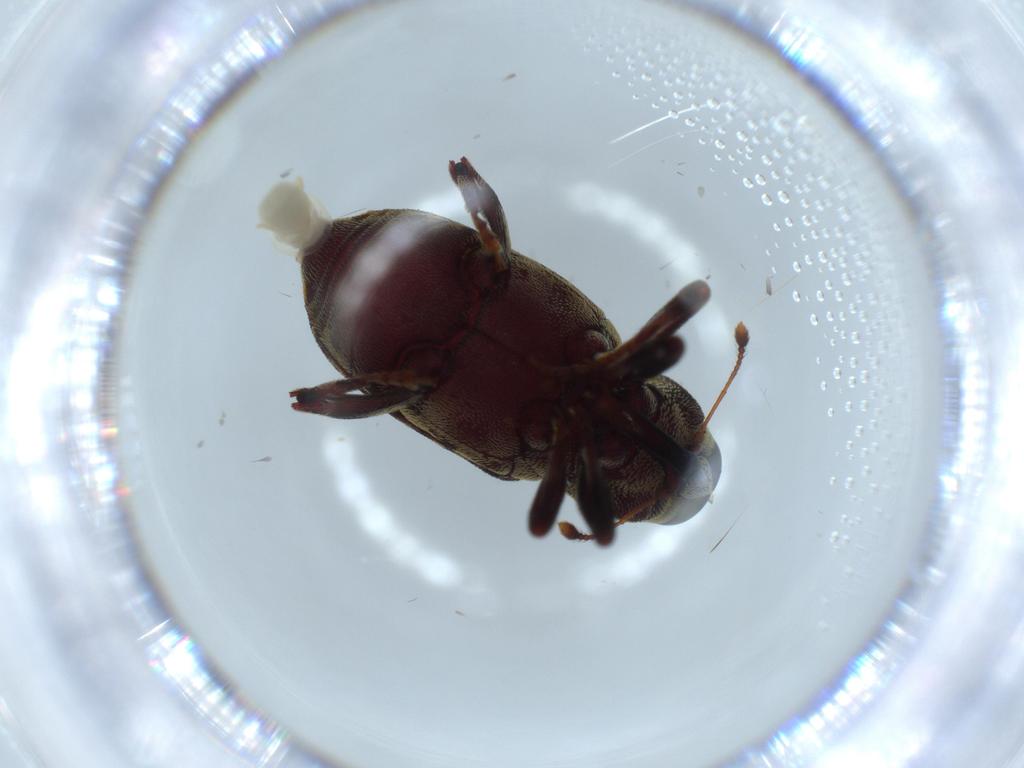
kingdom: Animalia
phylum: Arthropoda
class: Insecta
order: Coleoptera
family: Curculionidae
